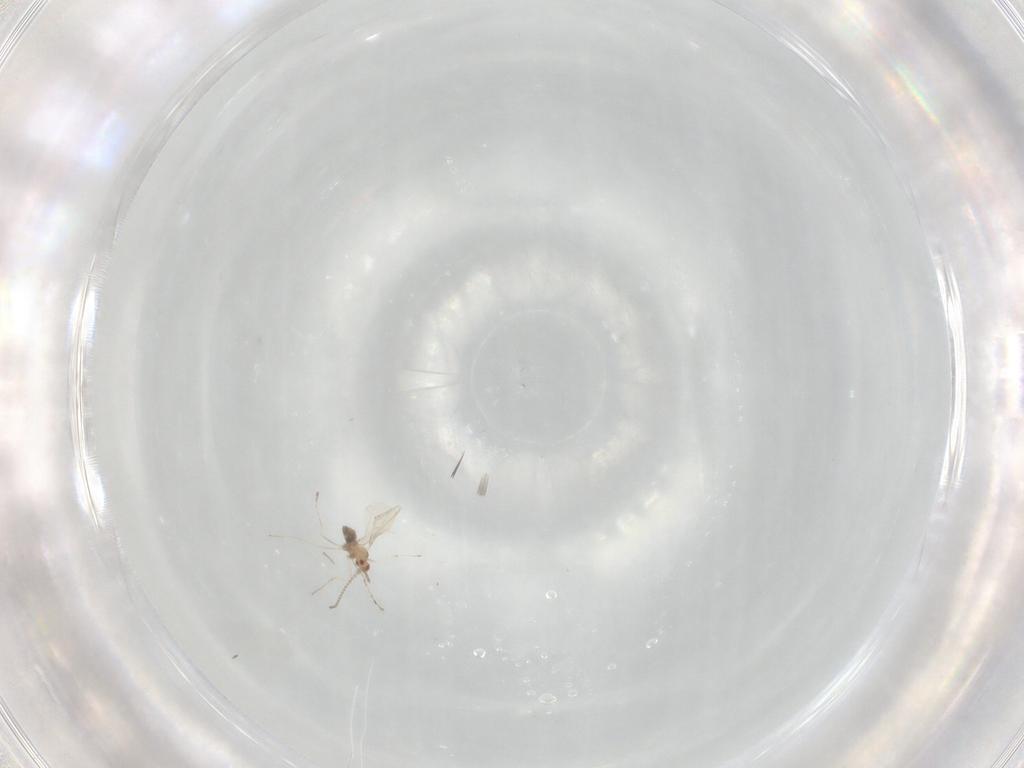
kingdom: Animalia
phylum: Arthropoda
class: Insecta
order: Diptera
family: Cecidomyiidae
